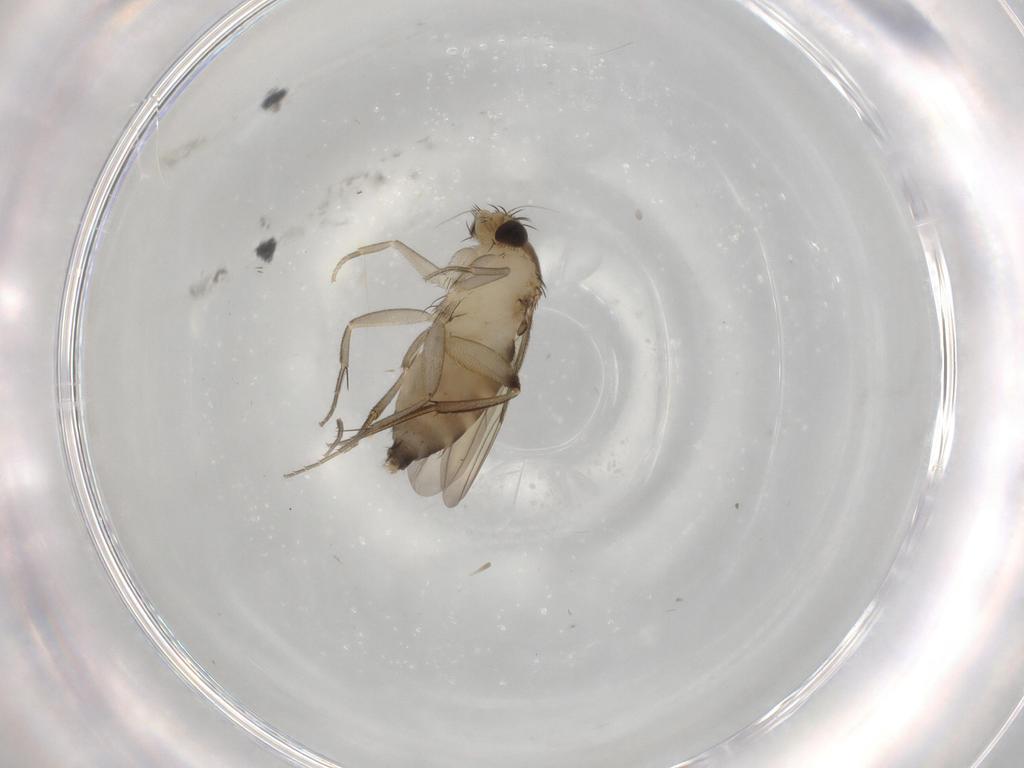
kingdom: Animalia
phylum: Arthropoda
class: Insecta
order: Diptera
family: Phoridae
